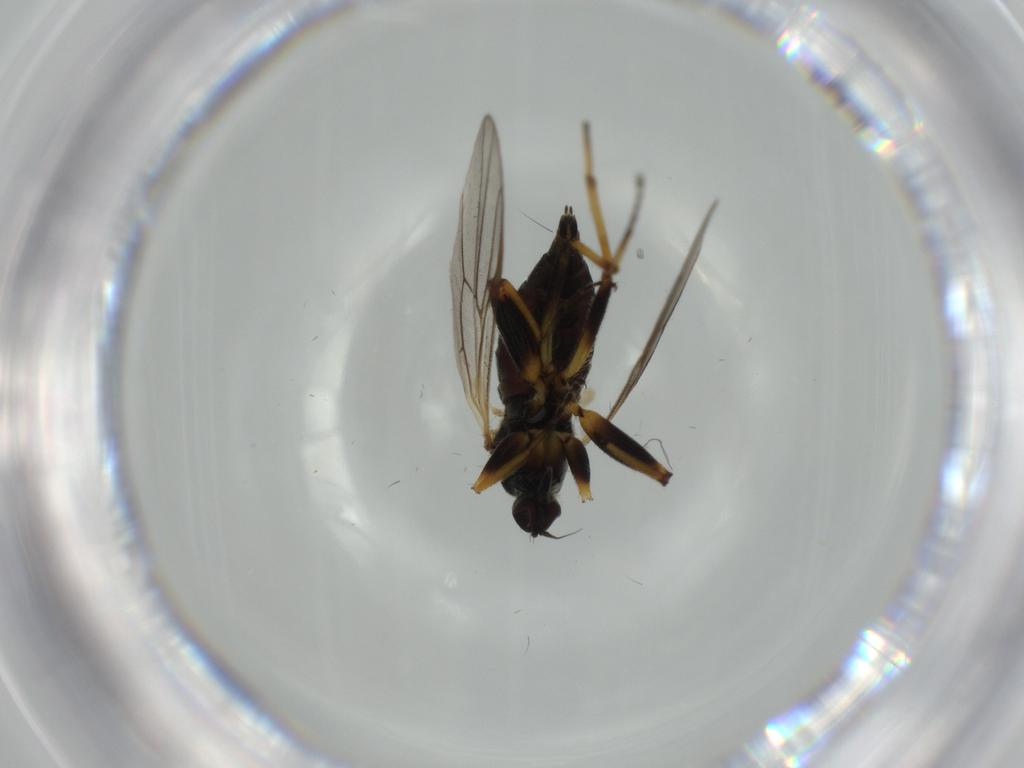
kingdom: Animalia
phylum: Arthropoda
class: Insecta
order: Diptera
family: Hybotidae
